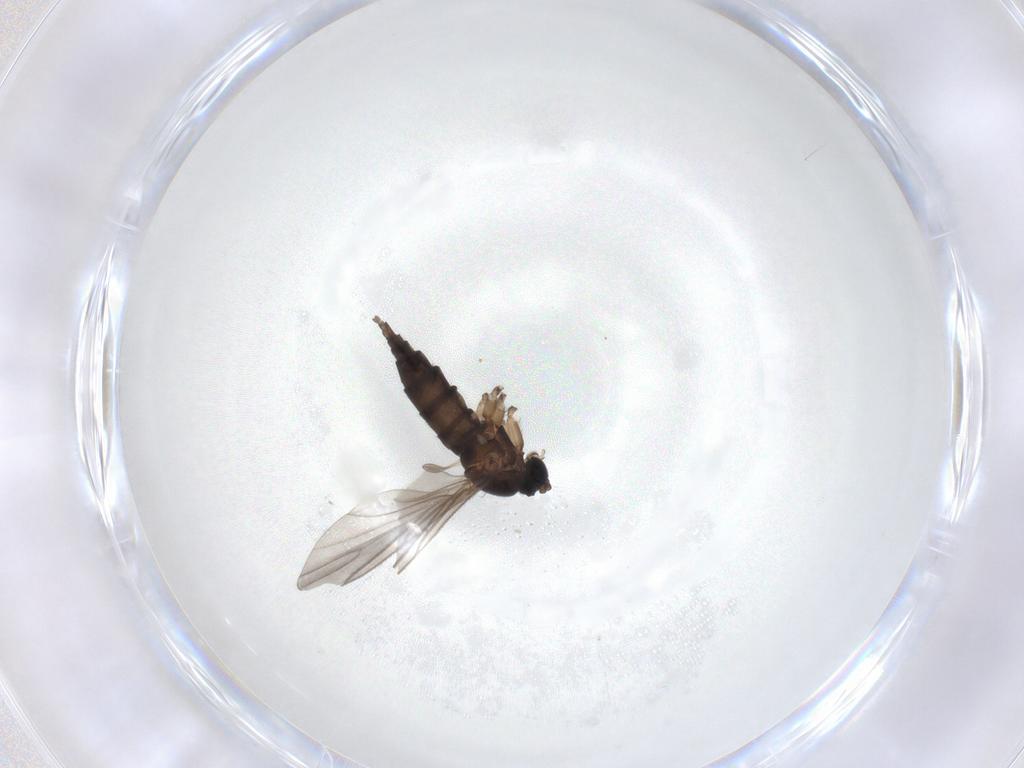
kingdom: Animalia
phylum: Arthropoda
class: Insecta
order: Diptera
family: Sciaridae
